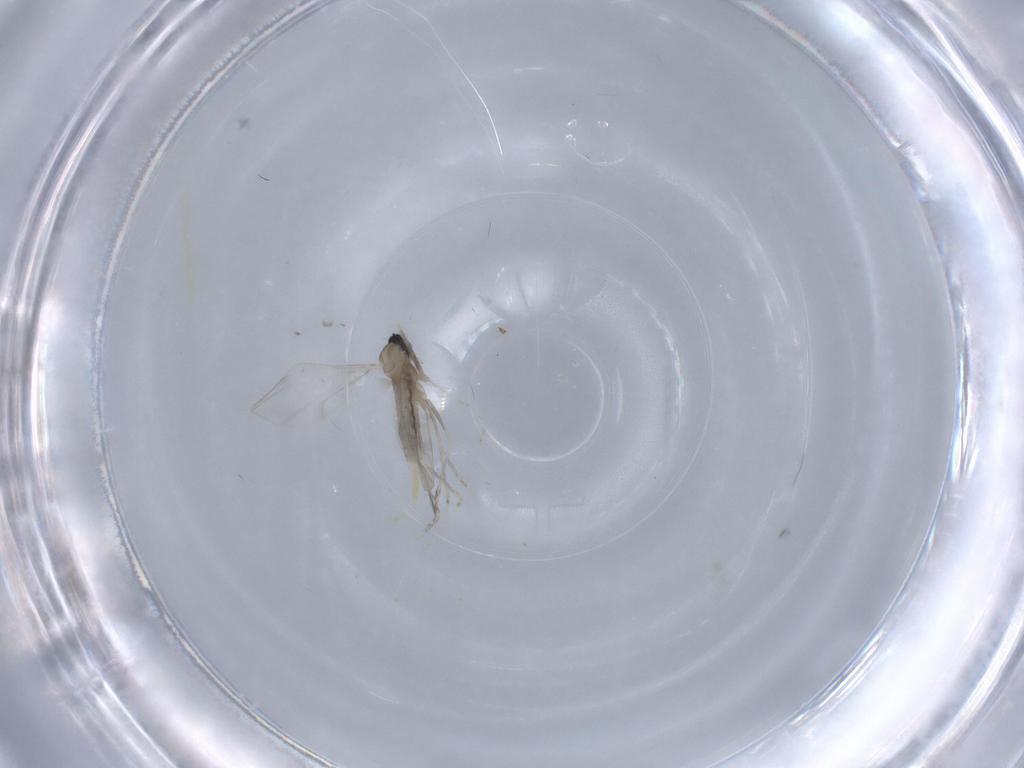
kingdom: Animalia
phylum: Arthropoda
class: Insecta
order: Diptera
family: Cecidomyiidae
